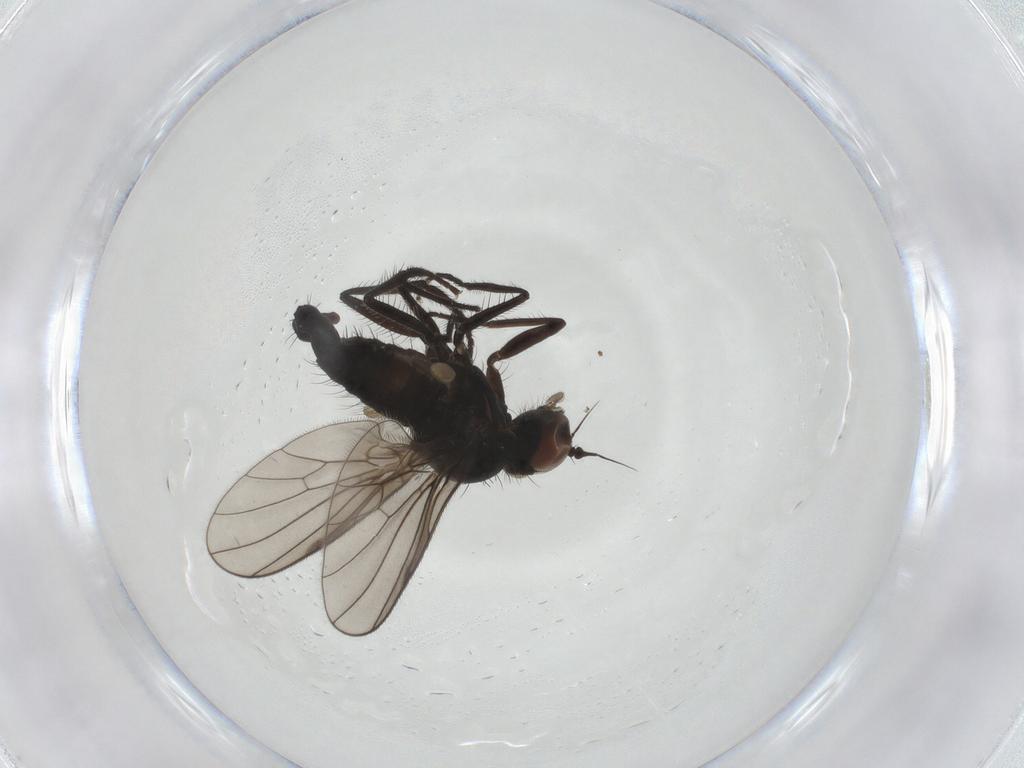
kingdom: Animalia
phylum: Arthropoda
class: Insecta
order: Diptera
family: Dolichopodidae
